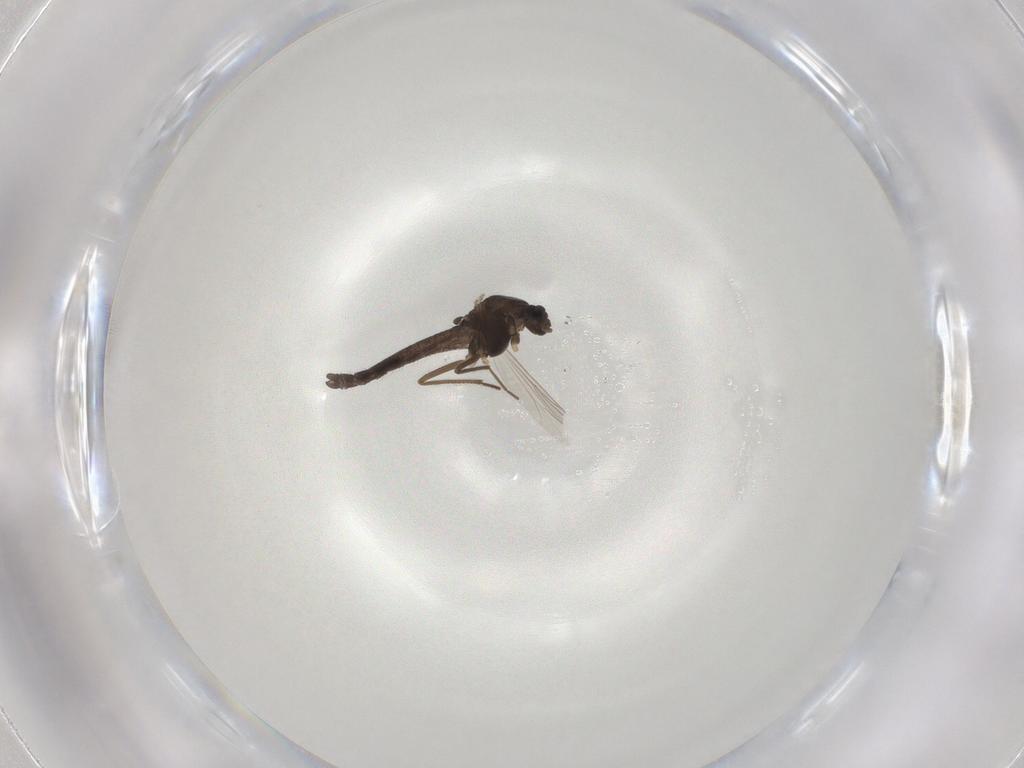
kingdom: Animalia
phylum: Arthropoda
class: Insecta
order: Diptera
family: Chironomidae
